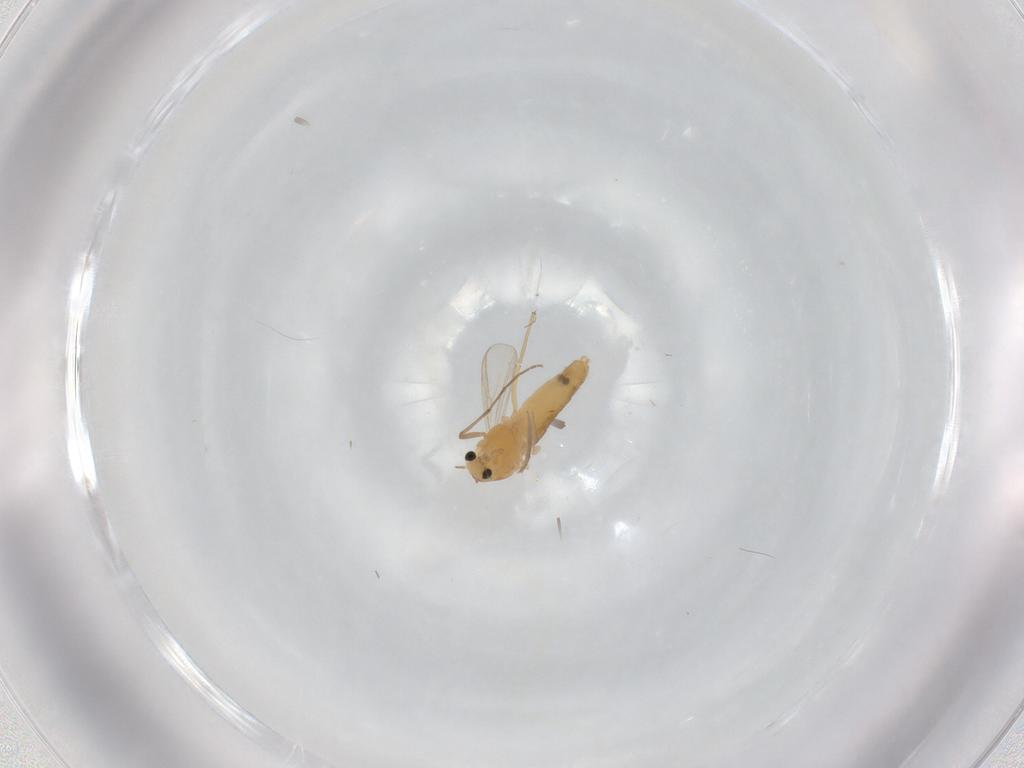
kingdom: Animalia
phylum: Arthropoda
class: Insecta
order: Diptera
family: Chironomidae
